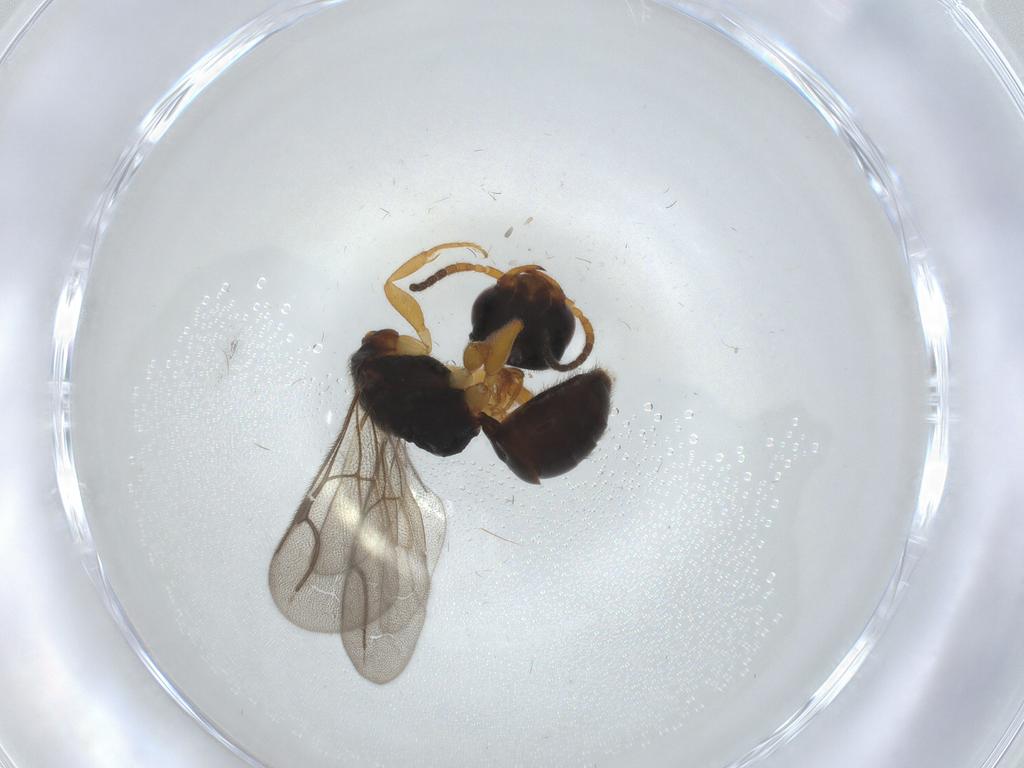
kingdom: Animalia
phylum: Arthropoda
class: Insecta
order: Hymenoptera
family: Bethylidae
